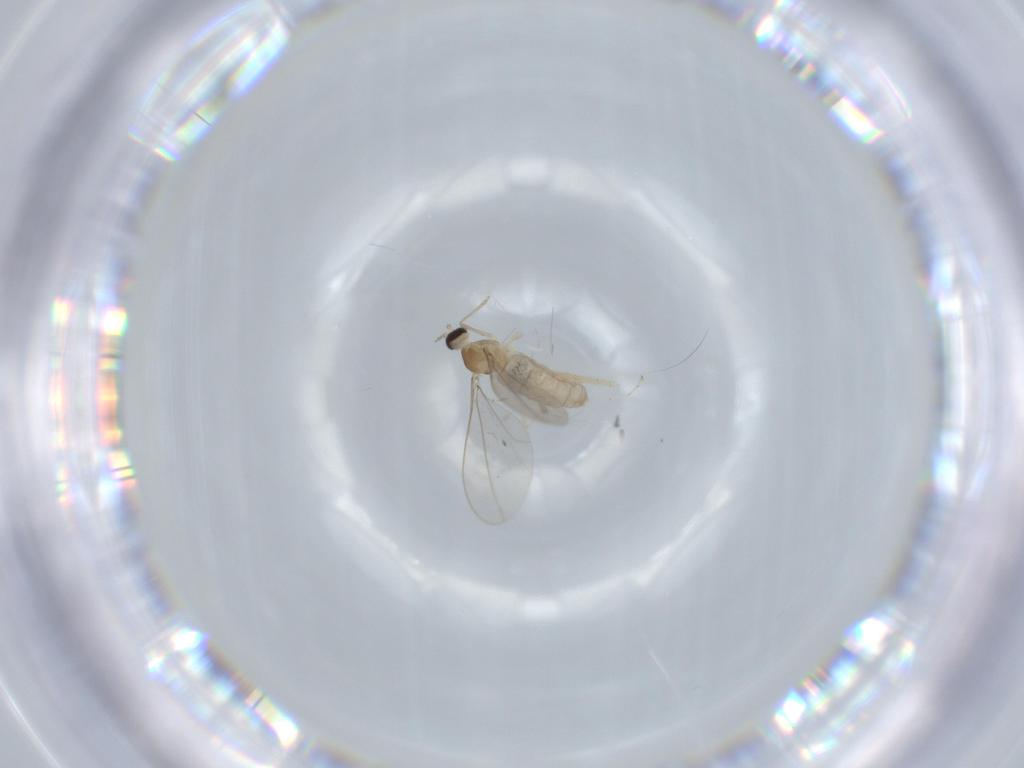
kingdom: Animalia
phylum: Arthropoda
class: Insecta
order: Diptera
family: Cecidomyiidae
